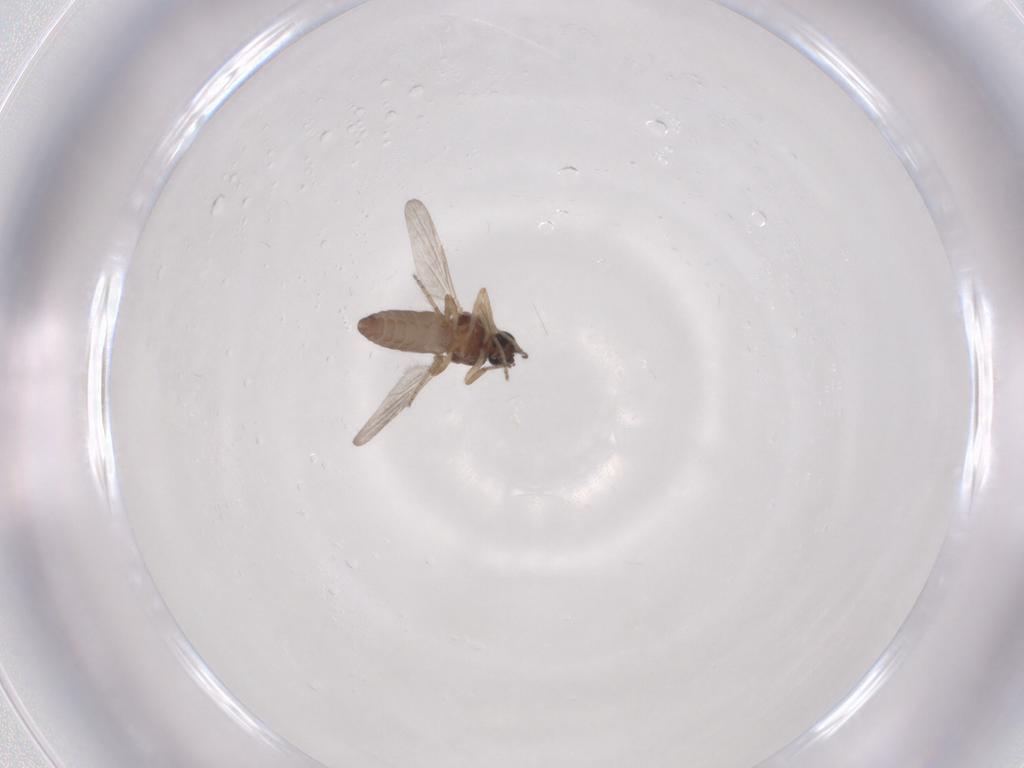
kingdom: Animalia
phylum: Arthropoda
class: Insecta
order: Diptera
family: Ceratopogonidae
